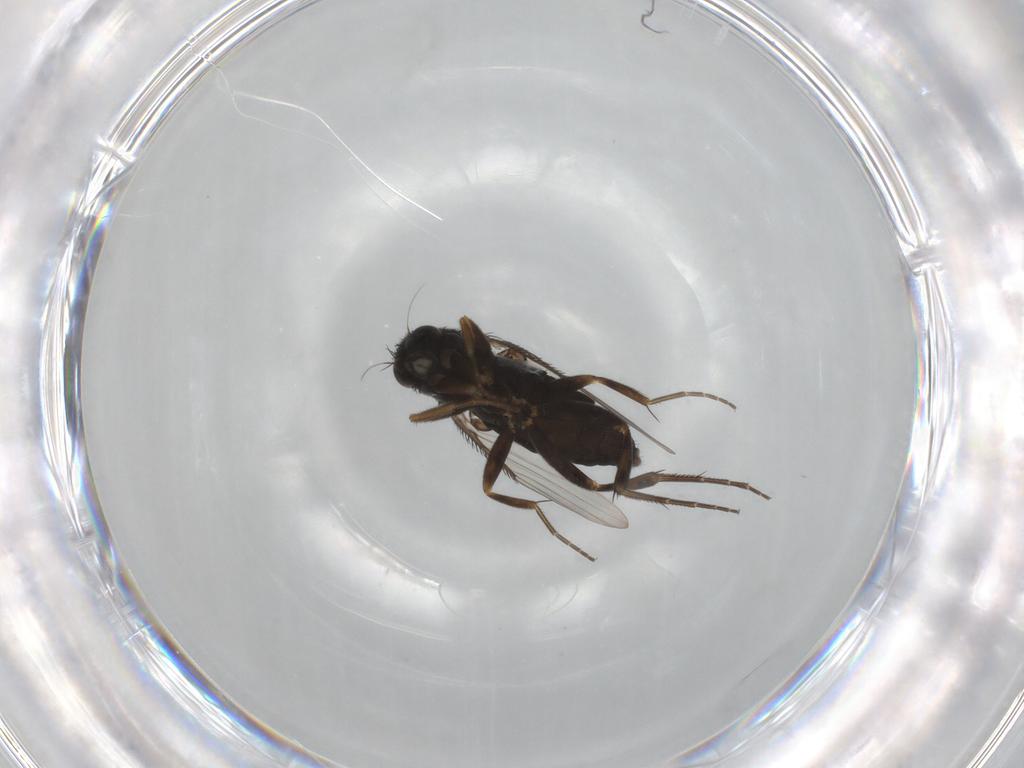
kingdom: Animalia
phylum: Arthropoda
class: Insecta
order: Diptera
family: Phoridae
